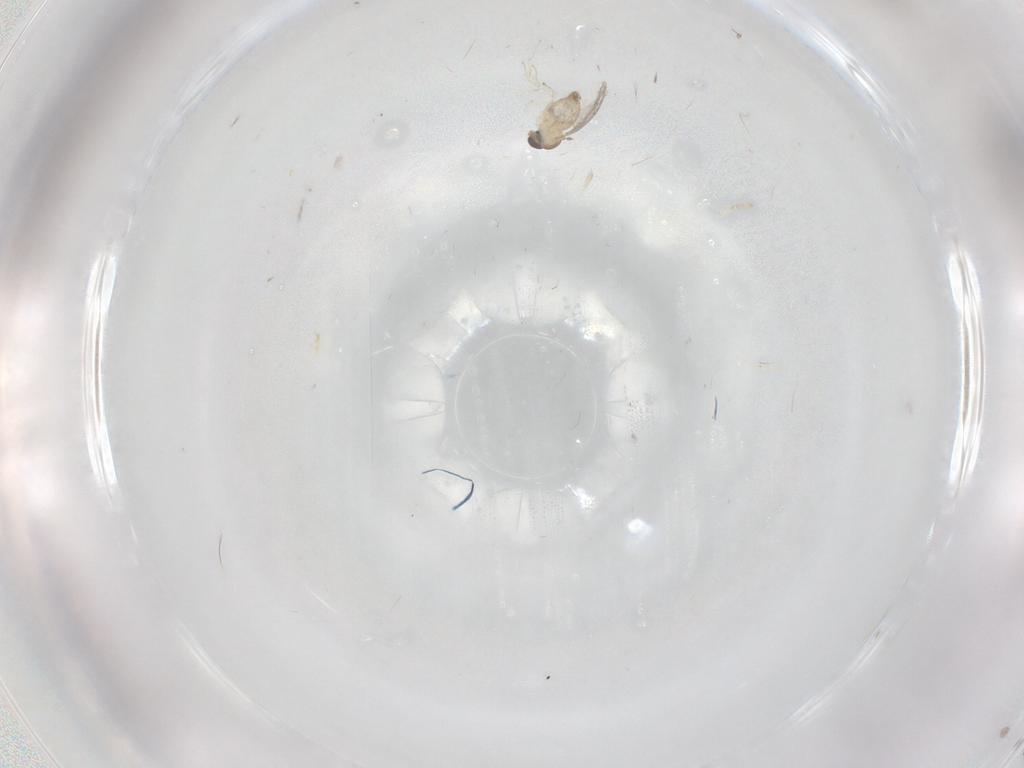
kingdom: Animalia
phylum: Arthropoda
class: Insecta
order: Diptera
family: Cecidomyiidae
